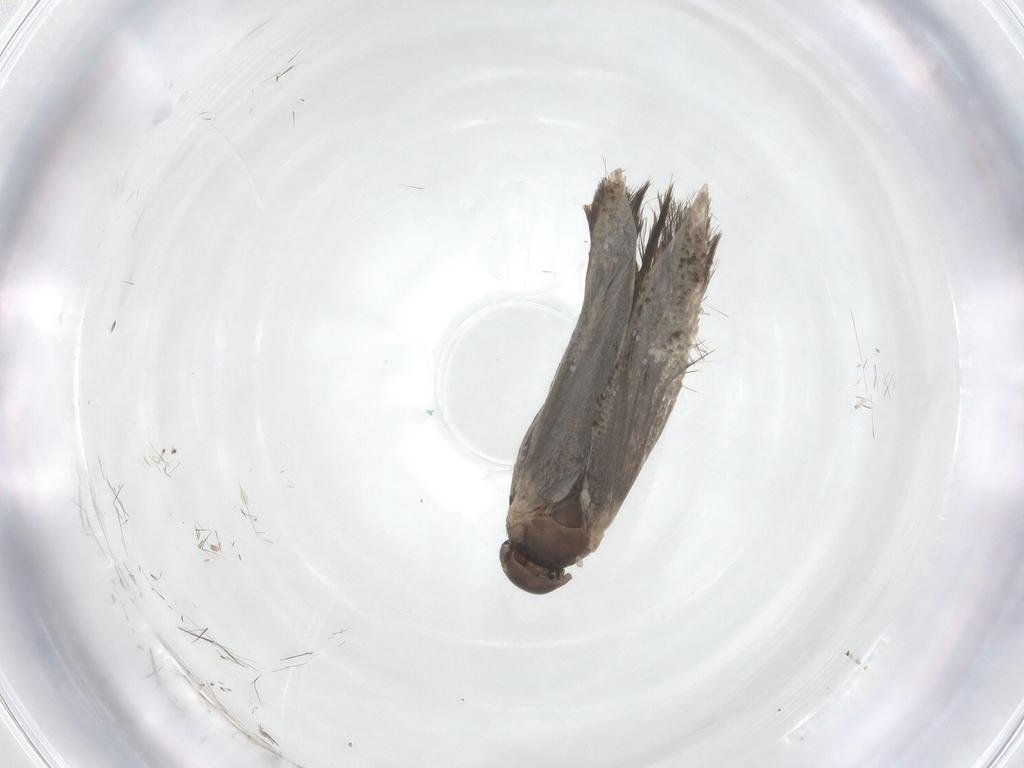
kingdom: Animalia
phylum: Arthropoda
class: Insecta
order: Lepidoptera
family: Elachistidae
